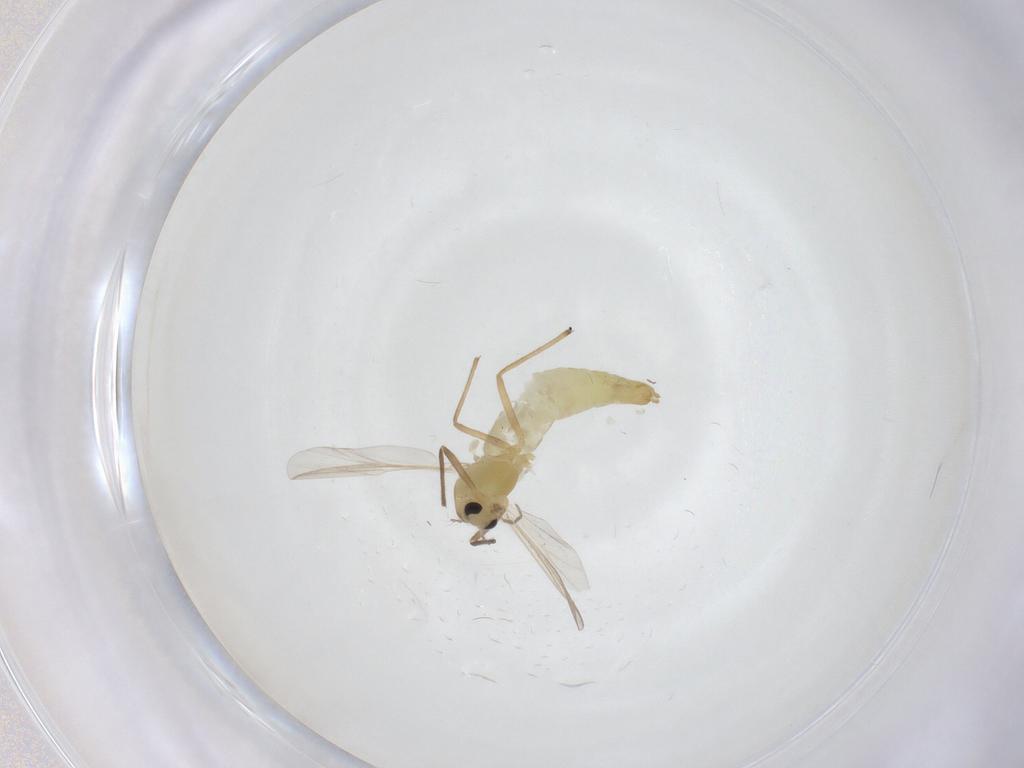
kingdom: Animalia
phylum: Arthropoda
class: Insecta
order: Diptera
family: Chironomidae
